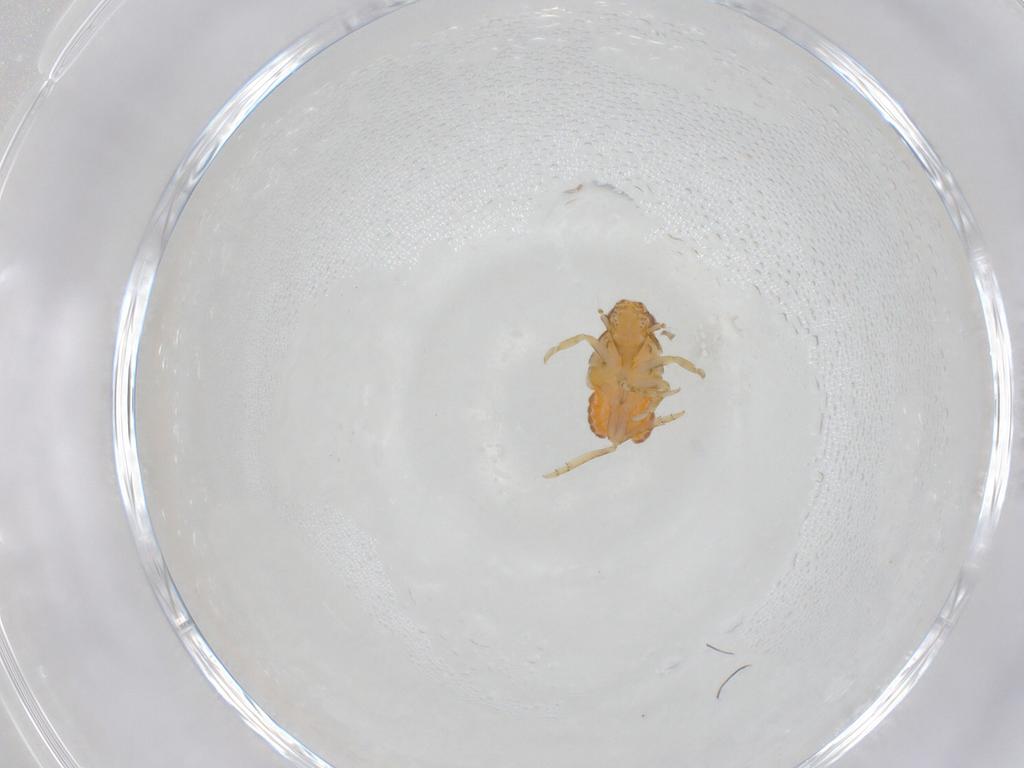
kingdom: Animalia
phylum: Arthropoda
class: Insecta
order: Hemiptera
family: Flatidae
